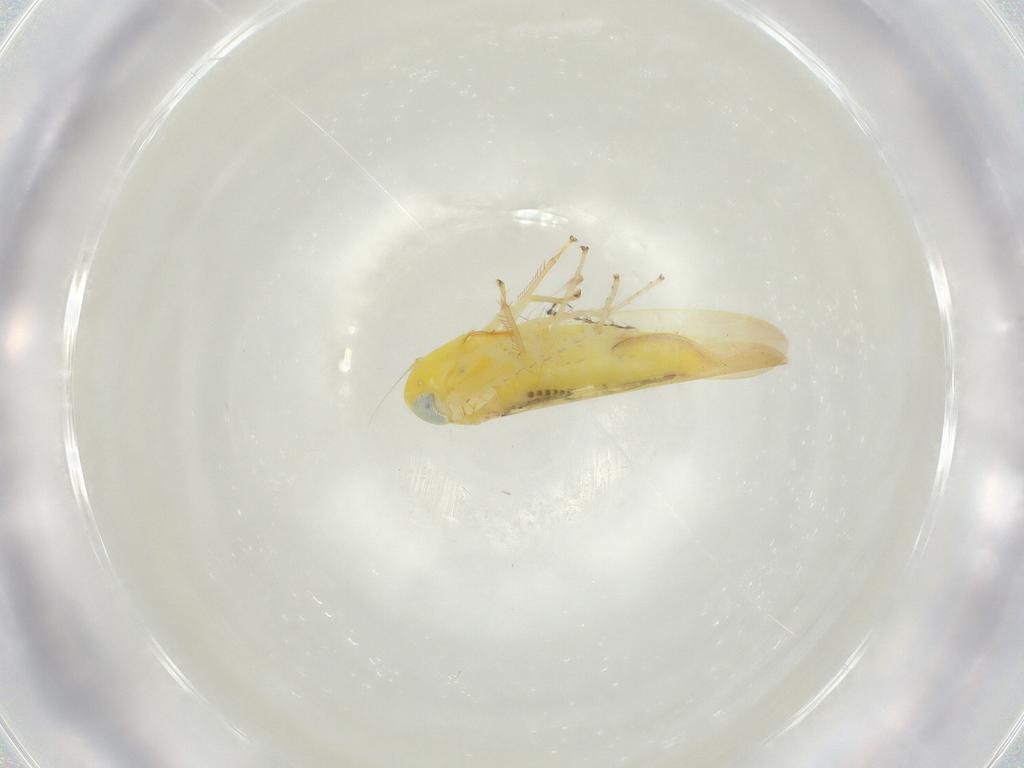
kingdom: Animalia
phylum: Arthropoda
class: Insecta
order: Hemiptera
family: Cicadellidae
